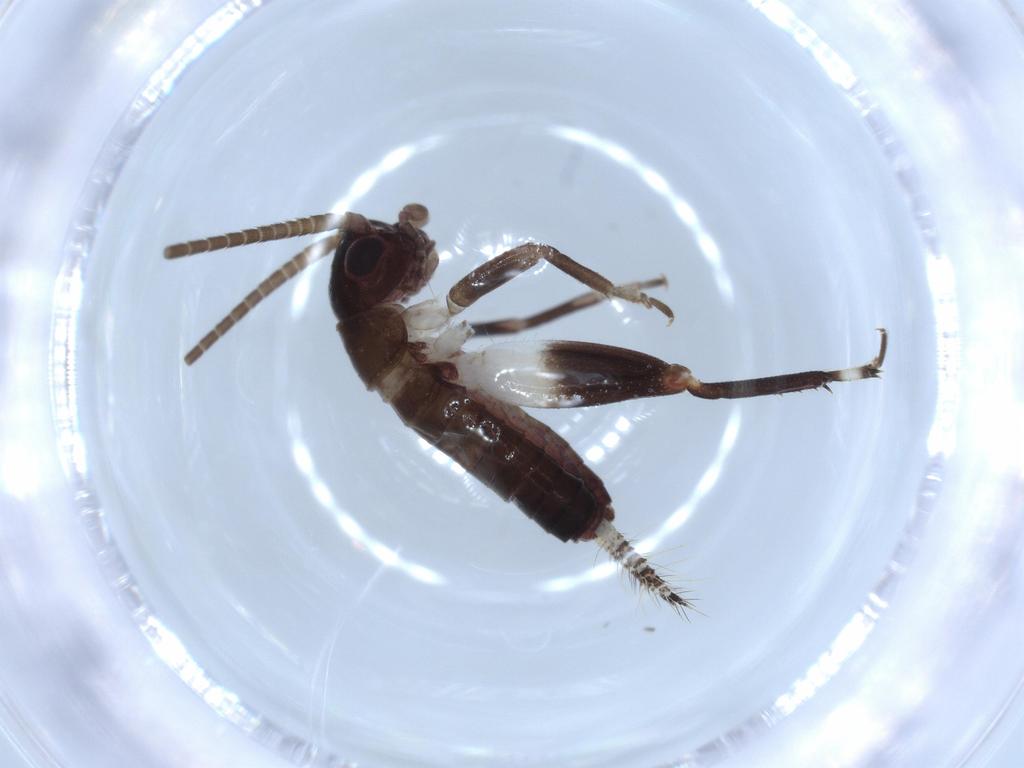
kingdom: Animalia
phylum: Arthropoda
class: Insecta
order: Orthoptera
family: Gryllidae
